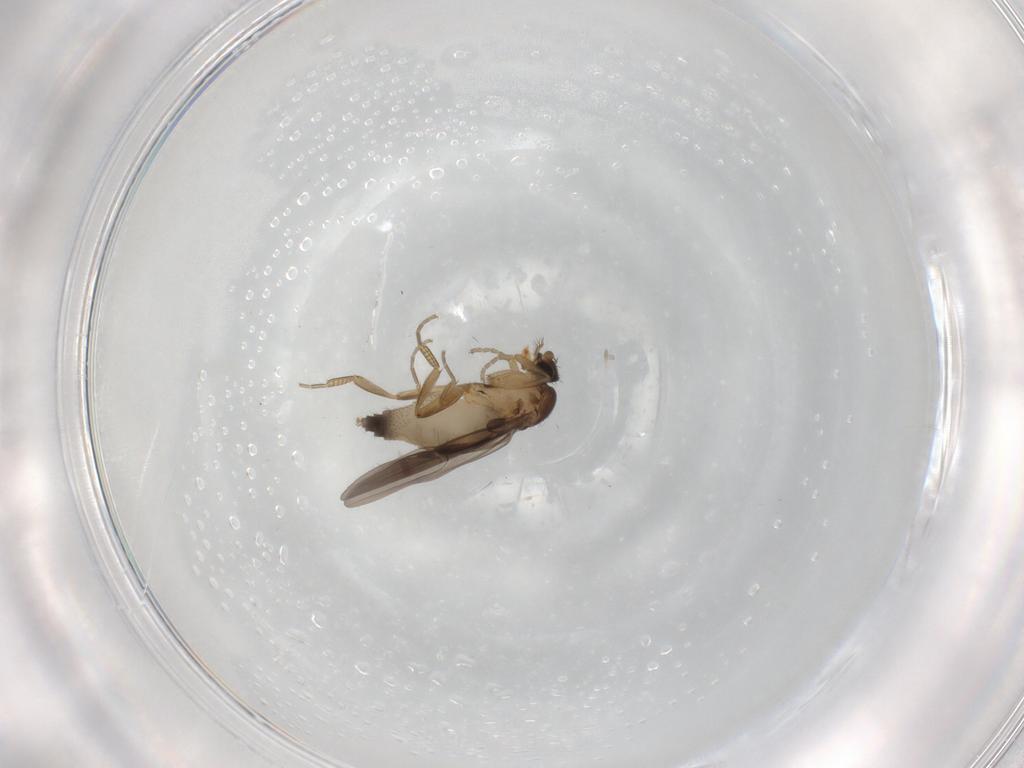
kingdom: Animalia
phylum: Arthropoda
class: Insecta
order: Diptera
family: Phoridae
